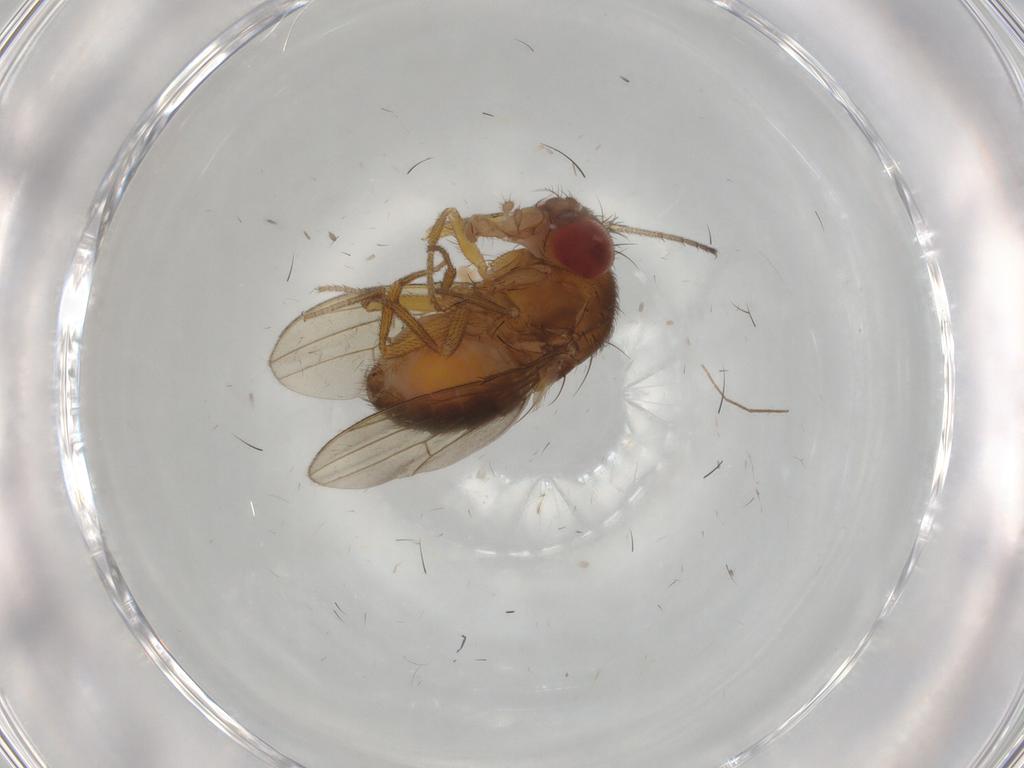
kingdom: Animalia
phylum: Arthropoda
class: Insecta
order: Diptera
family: Drosophilidae
